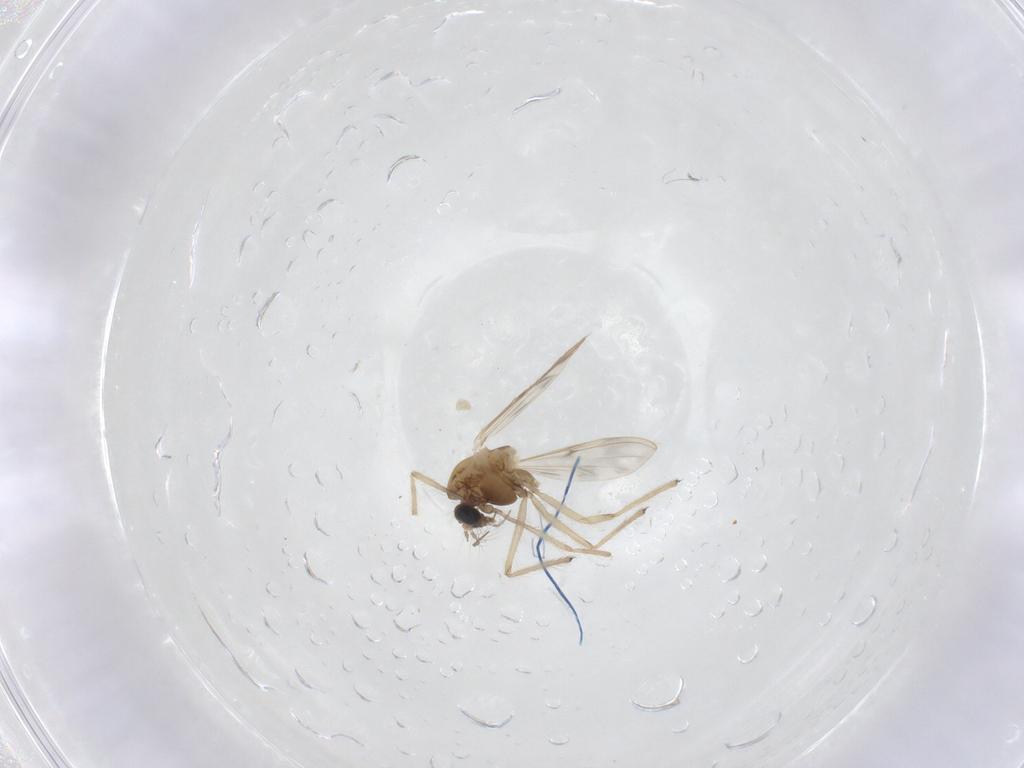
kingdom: Animalia
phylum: Arthropoda
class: Insecta
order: Diptera
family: Chironomidae
